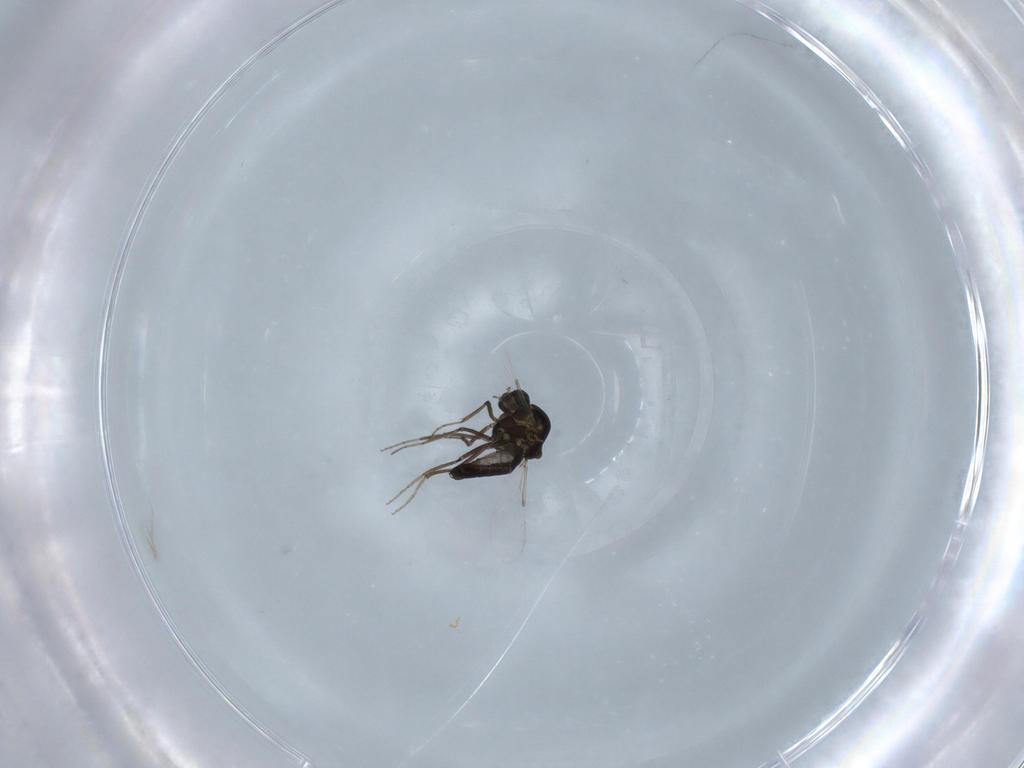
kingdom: Animalia
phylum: Arthropoda
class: Insecta
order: Diptera
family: Ceratopogonidae
